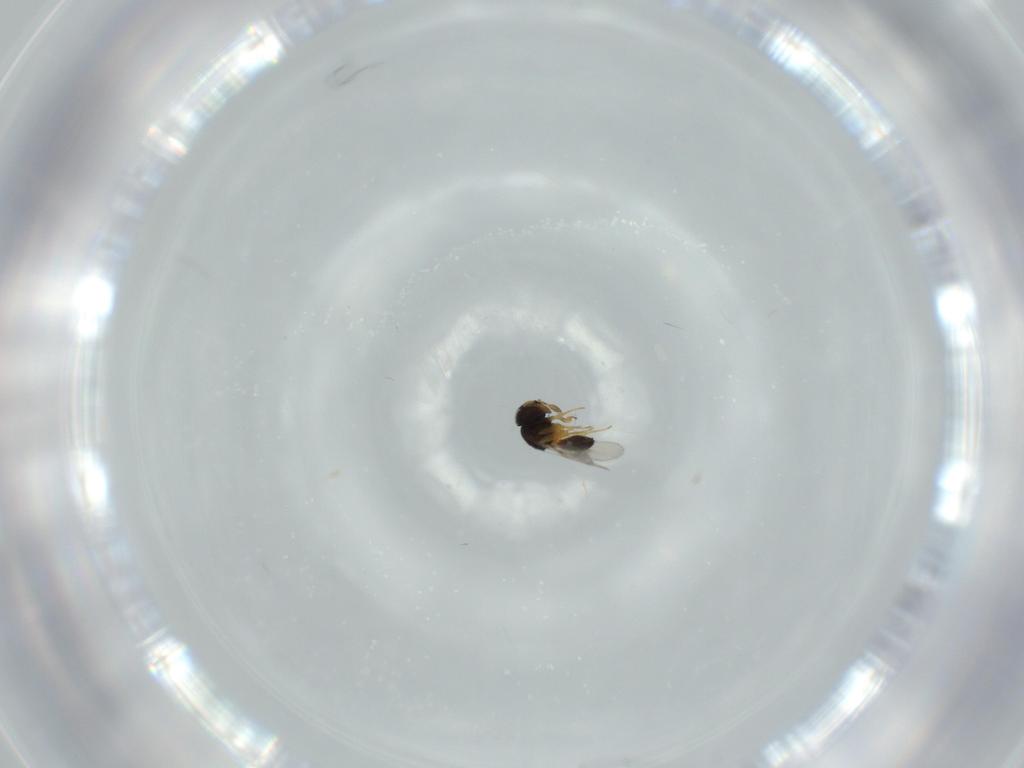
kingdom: Animalia
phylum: Arthropoda
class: Insecta
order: Hymenoptera
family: Scelionidae
